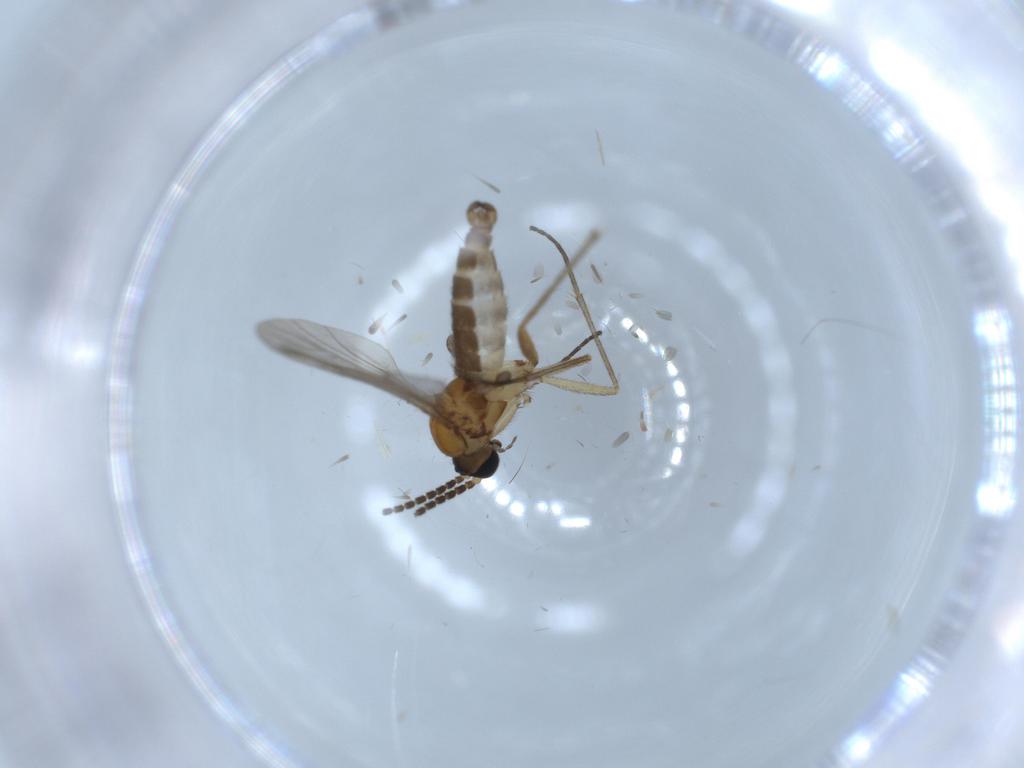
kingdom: Animalia
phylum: Arthropoda
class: Insecta
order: Diptera
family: Sciaridae
